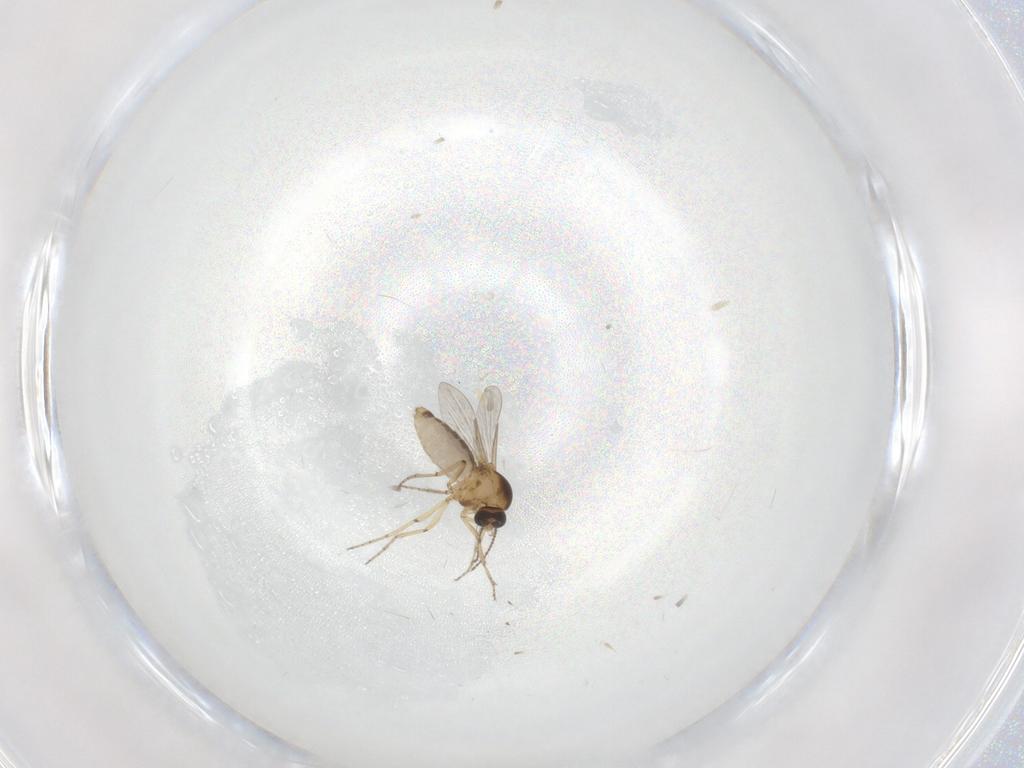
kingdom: Animalia
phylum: Arthropoda
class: Insecta
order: Diptera
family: Ceratopogonidae
